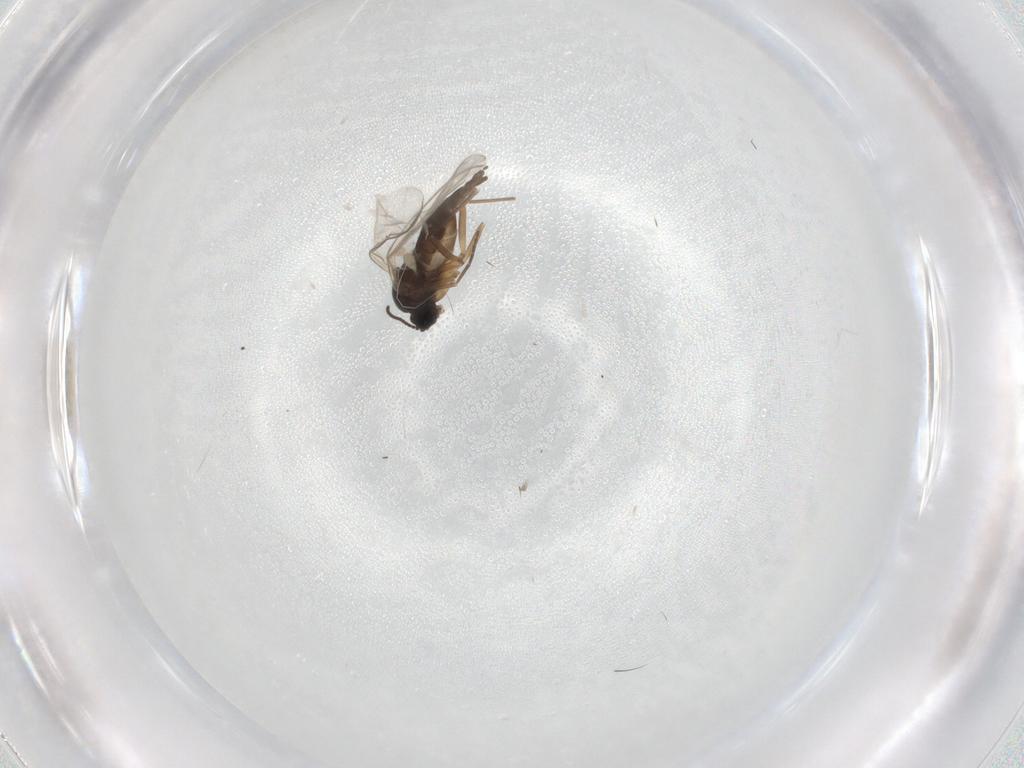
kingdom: Animalia
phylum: Arthropoda
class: Insecta
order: Diptera
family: Sciaridae
